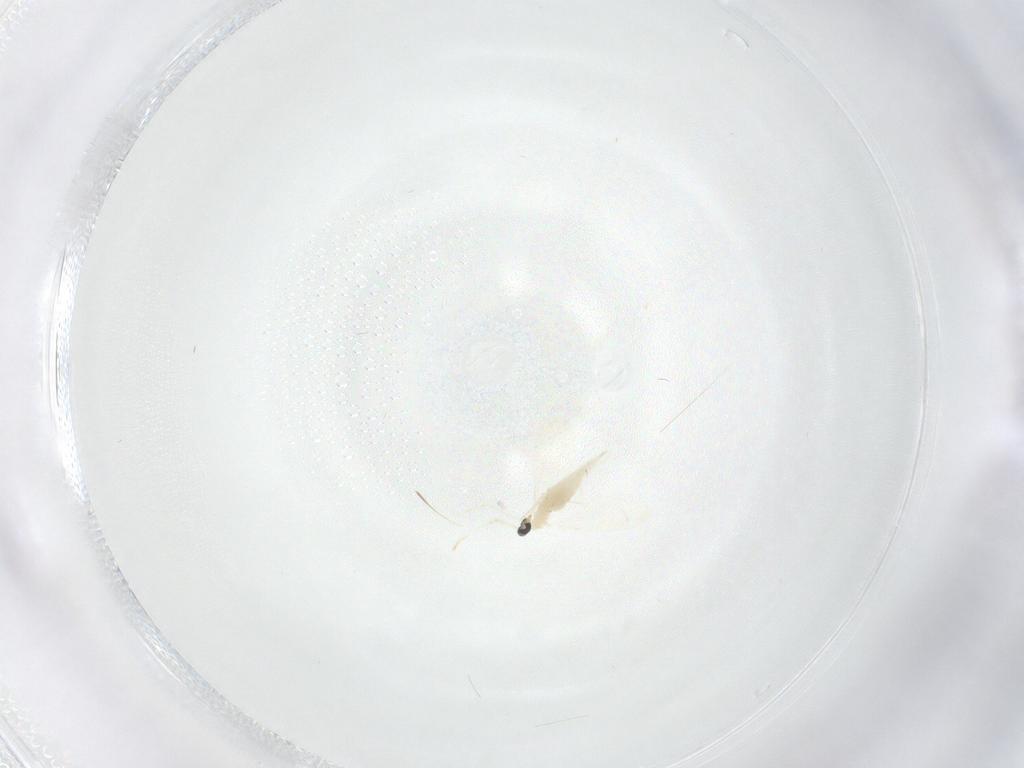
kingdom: Animalia
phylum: Arthropoda
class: Insecta
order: Diptera
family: Cecidomyiidae
